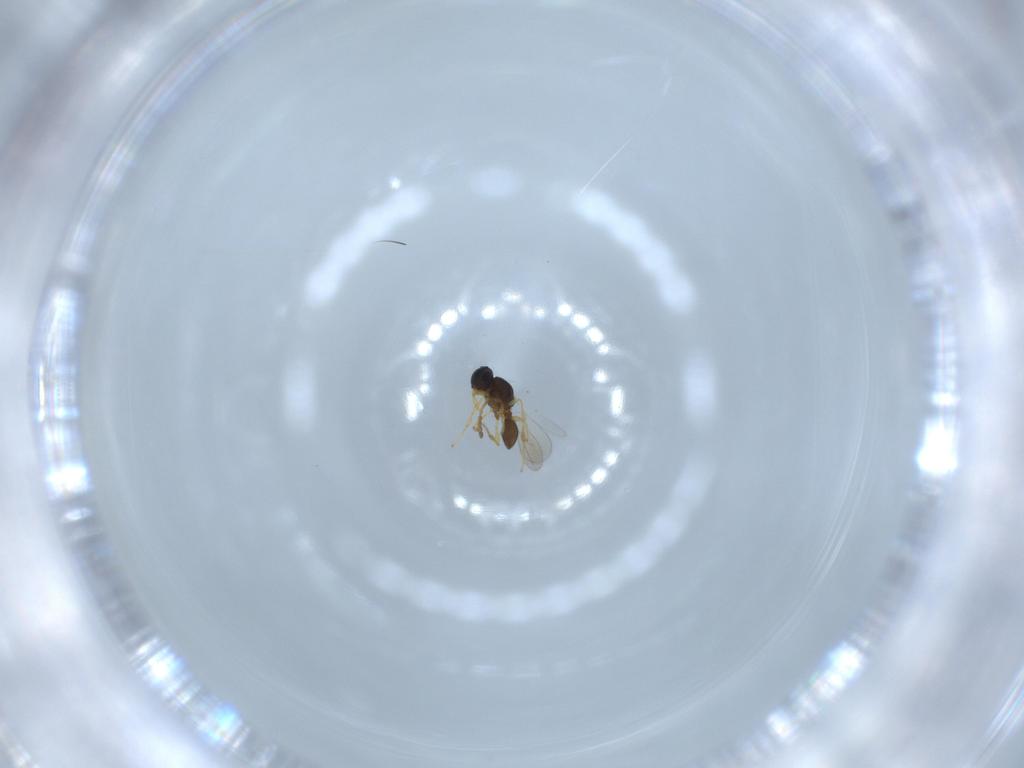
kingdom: Animalia
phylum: Arthropoda
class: Insecta
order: Hymenoptera
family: Platygastridae
